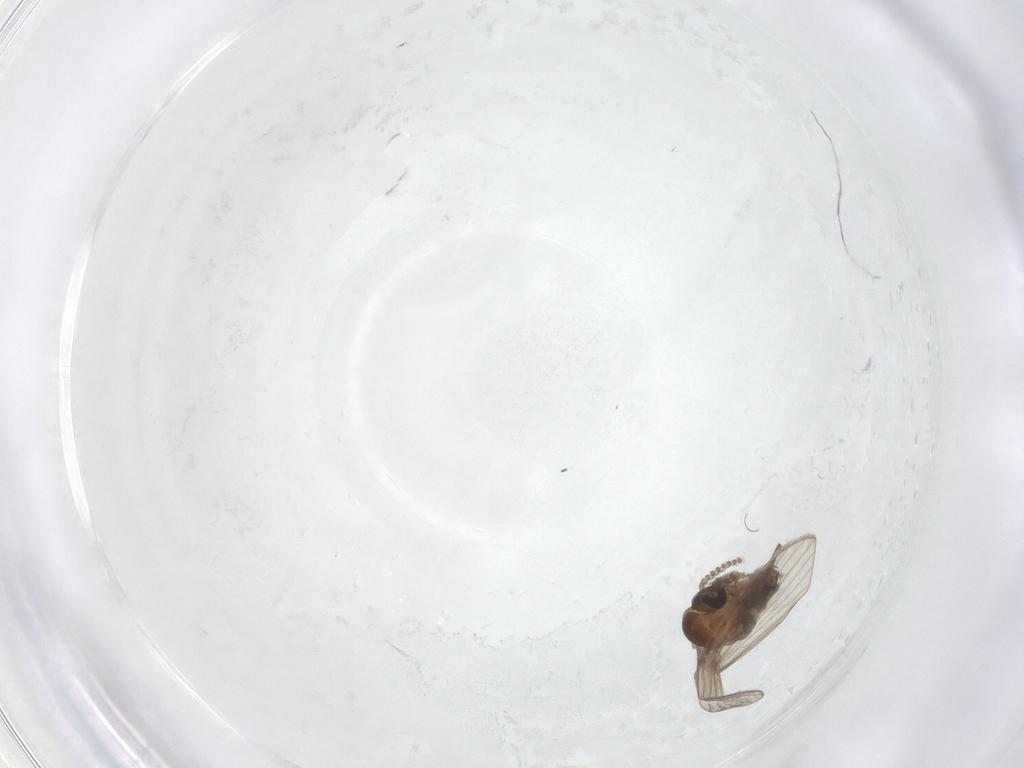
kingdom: Animalia
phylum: Arthropoda
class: Insecta
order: Diptera
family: Cecidomyiidae
